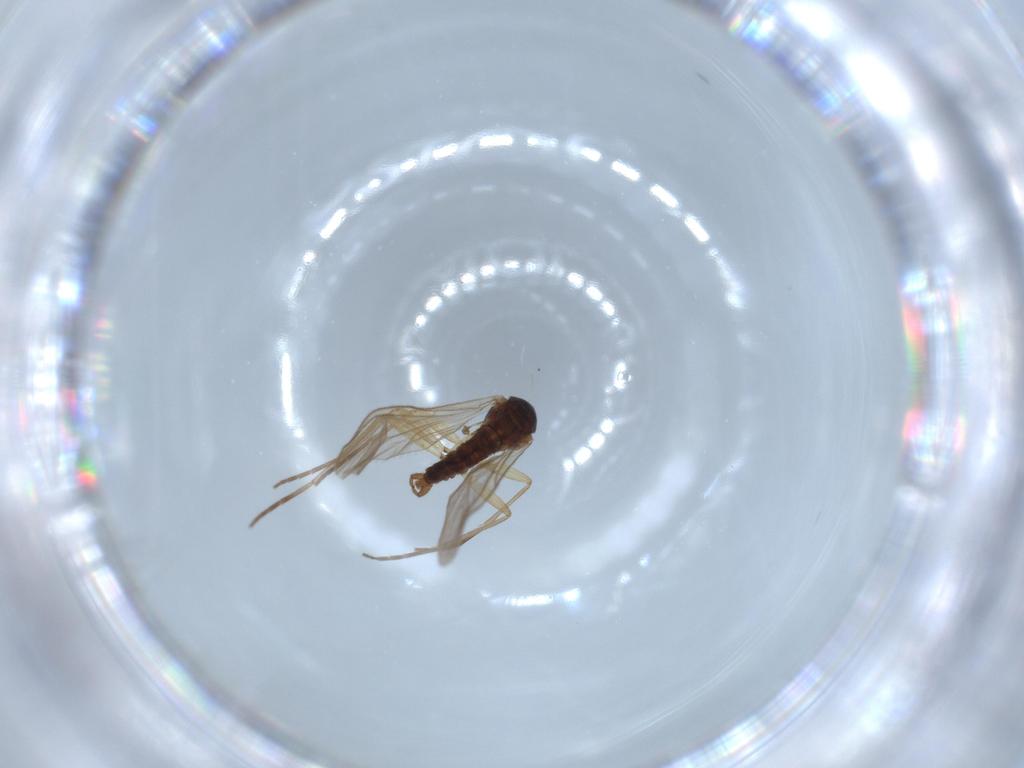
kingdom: Animalia
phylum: Arthropoda
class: Insecta
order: Diptera
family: Sciaridae
